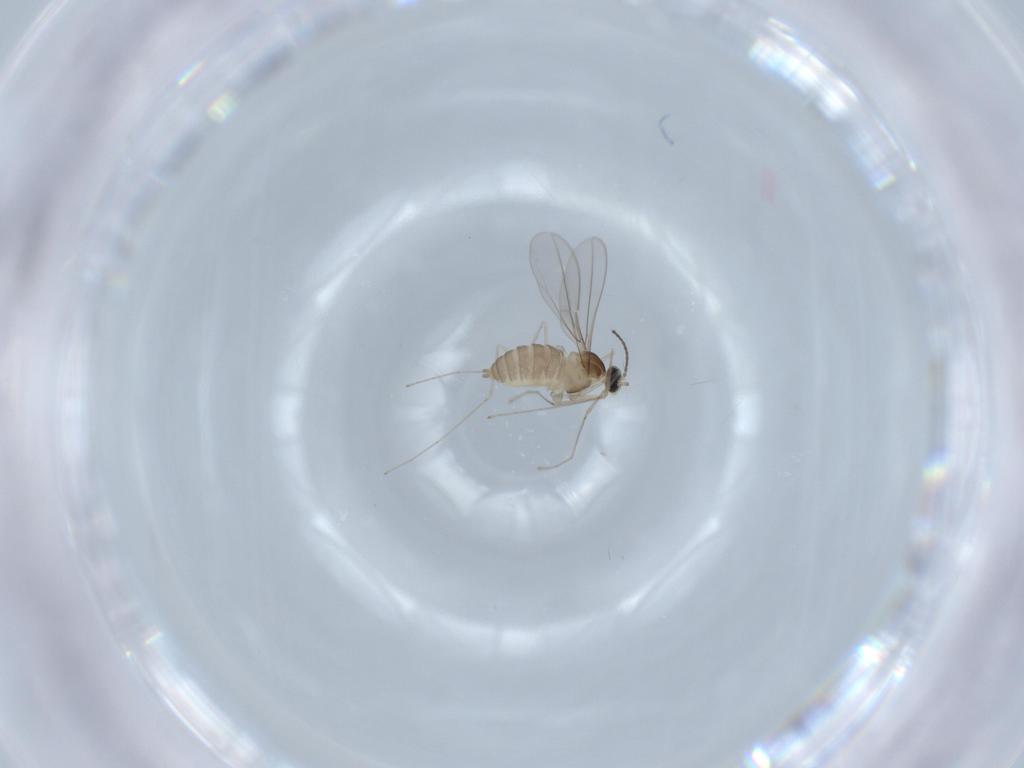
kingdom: Animalia
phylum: Arthropoda
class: Insecta
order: Diptera
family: Cecidomyiidae
